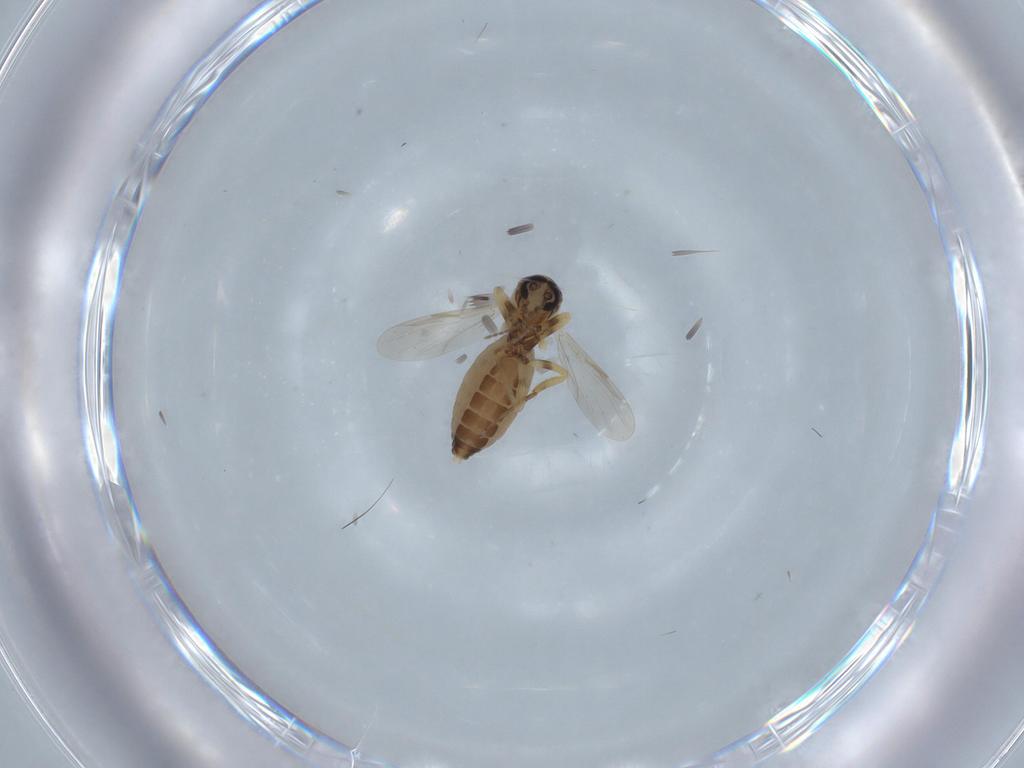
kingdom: Animalia
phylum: Arthropoda
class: Insecta
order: Diptera
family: Ceratopogonidae
